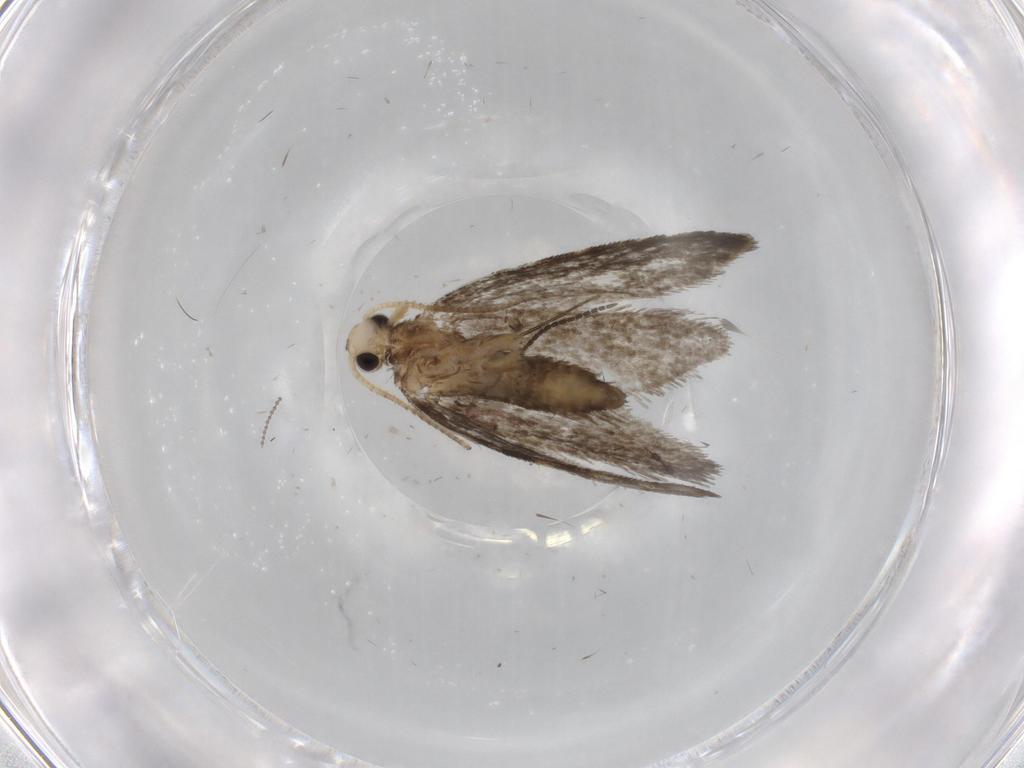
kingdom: Animalia
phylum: Arthropoda
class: Insecta
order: Lepidoptera
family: Psychidae
